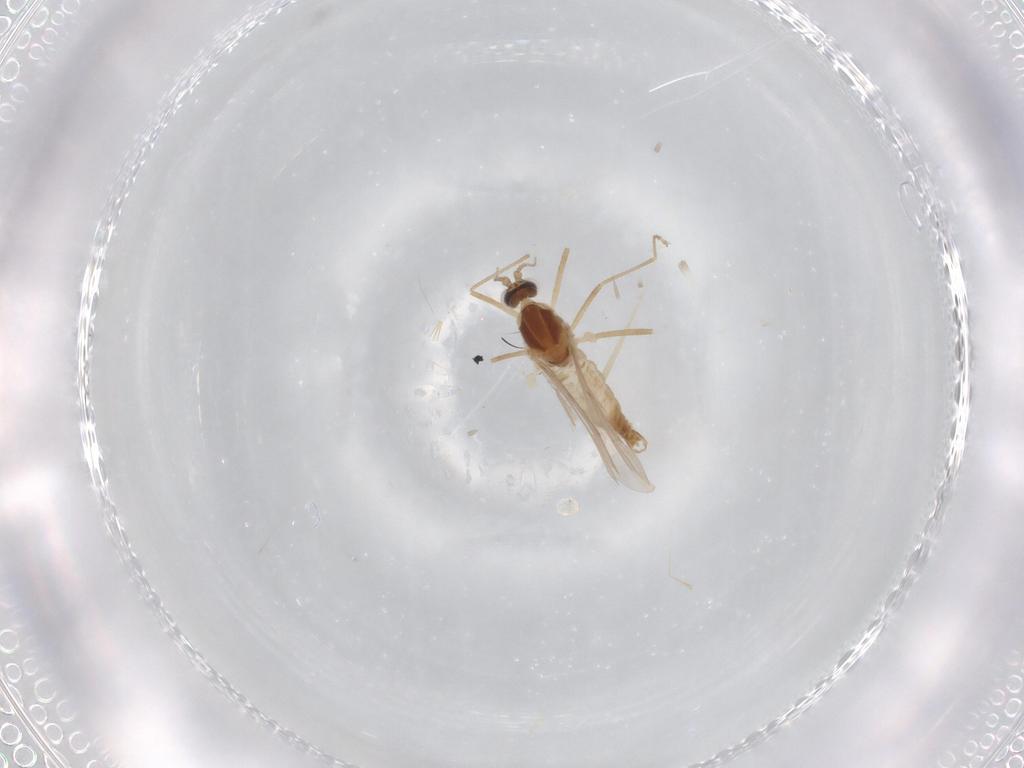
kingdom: Animalia
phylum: Arthropoda
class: Insecta
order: Diptera
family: Cecidomyiidae
